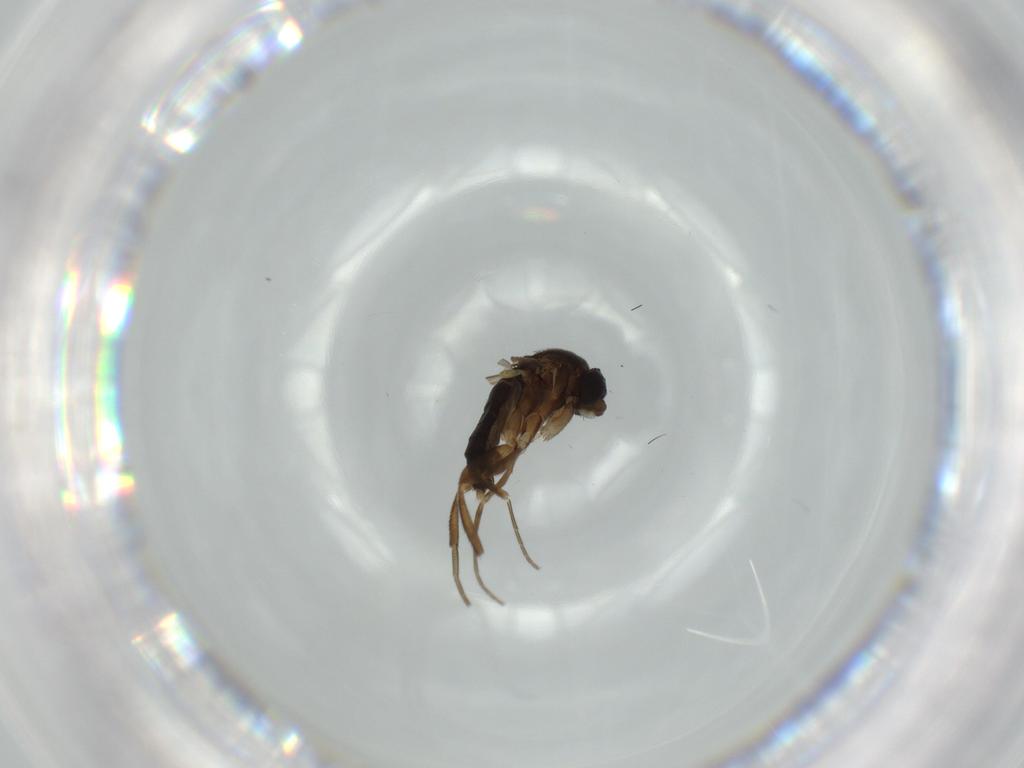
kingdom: Animalia
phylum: Arthropoda
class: Insecta
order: Diptera
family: Phoridae
